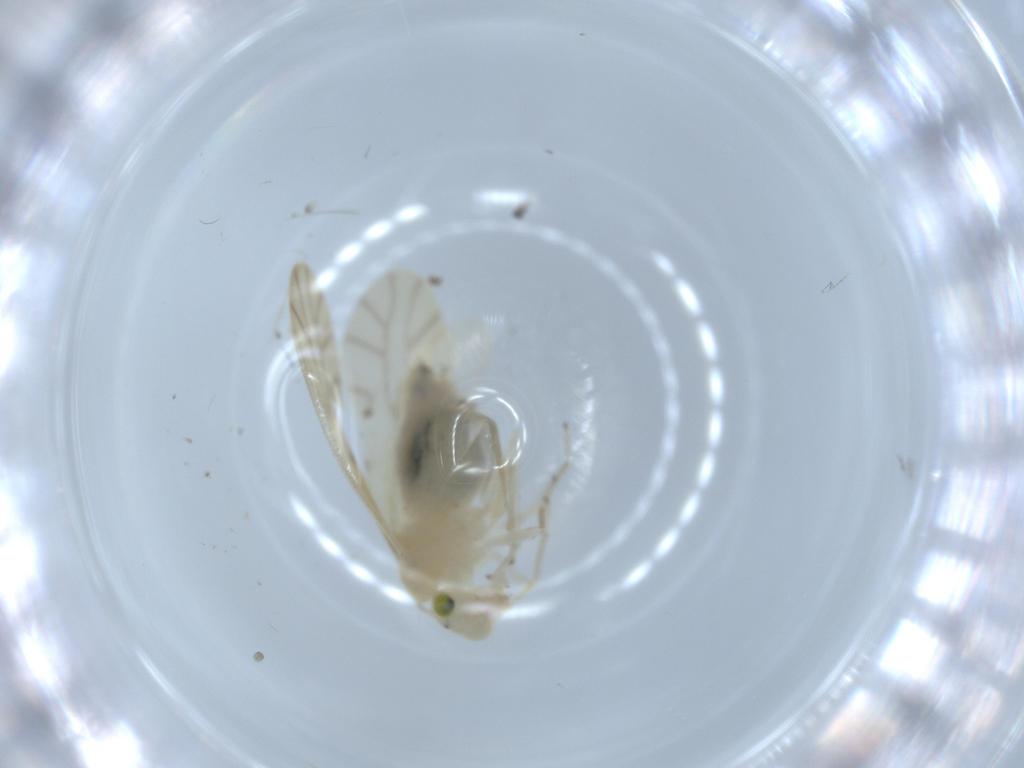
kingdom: Animalia
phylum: Arthropoda
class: Insecta
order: Psocodea
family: Caeciliusidae
